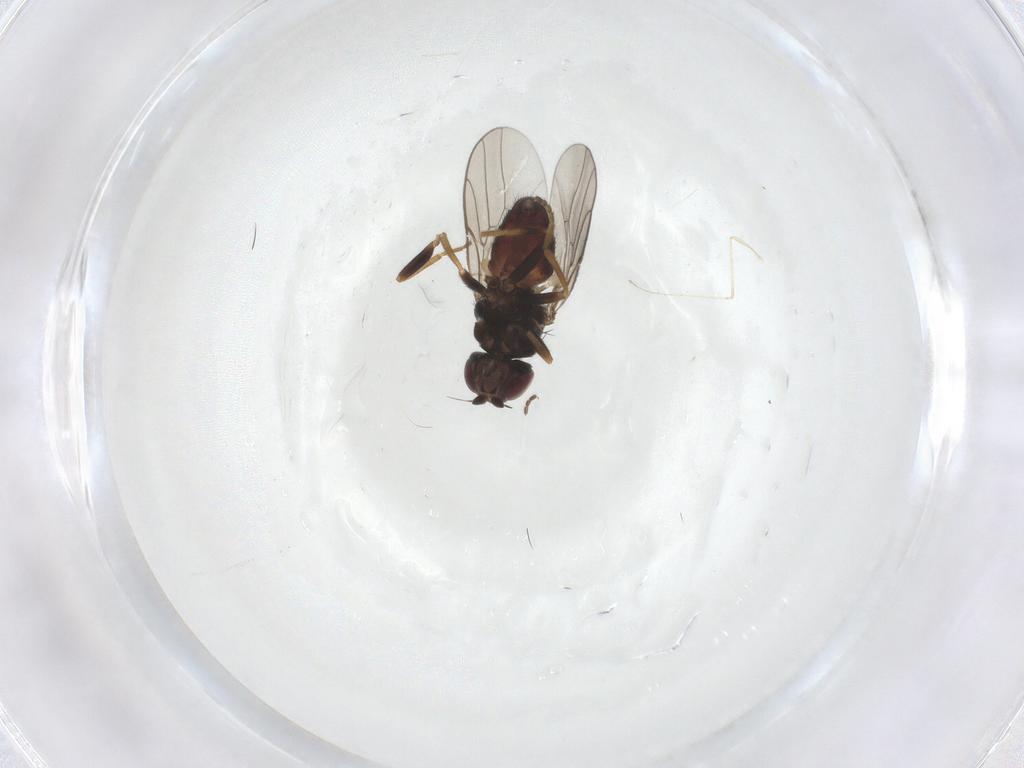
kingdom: Animalia
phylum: Arthropoda
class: Insecta
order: Diptera
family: Chloropidae
